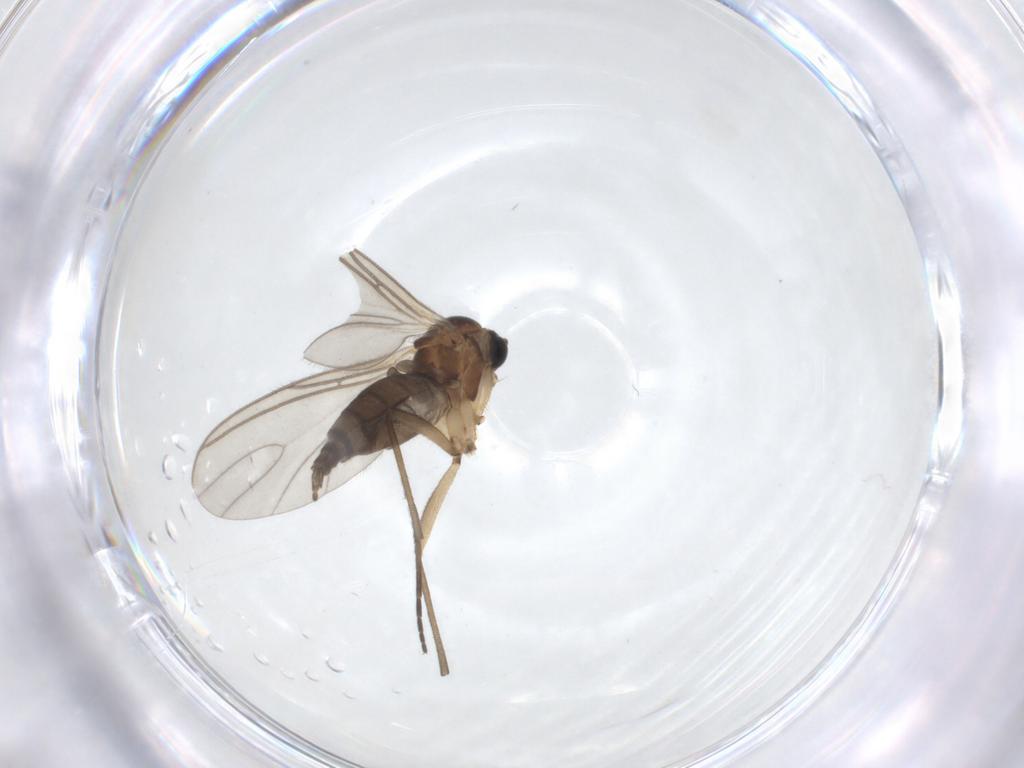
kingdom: Animalia
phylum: Arthropoda
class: Insecta
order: Diptera
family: Sciaridae
